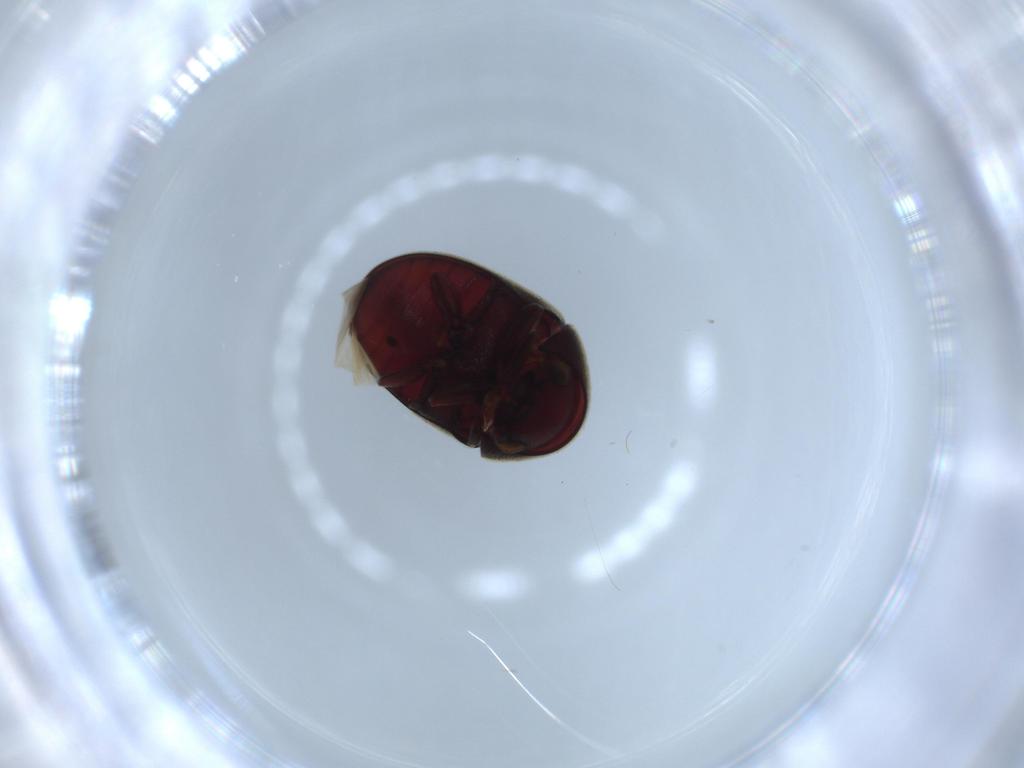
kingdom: Animalia
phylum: Arthropoda
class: Insecta
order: Coleoptera
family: Ptinidae
